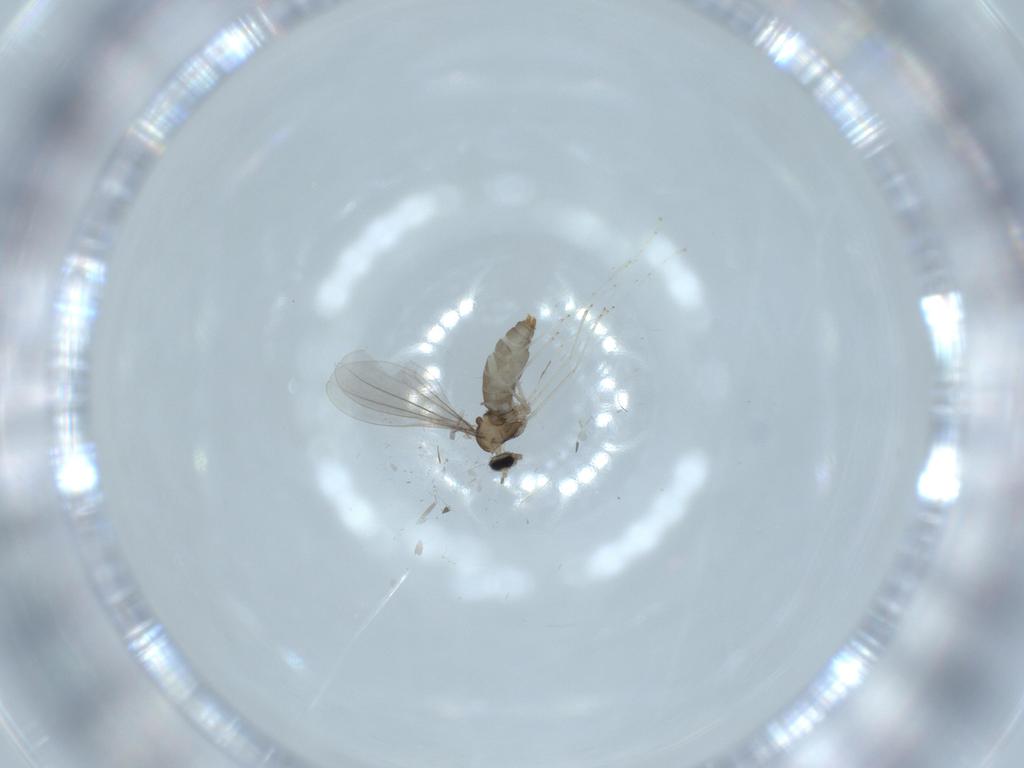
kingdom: Animalia
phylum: Arthropoda
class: Insecta
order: Diptera
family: Cecidomyiidae
